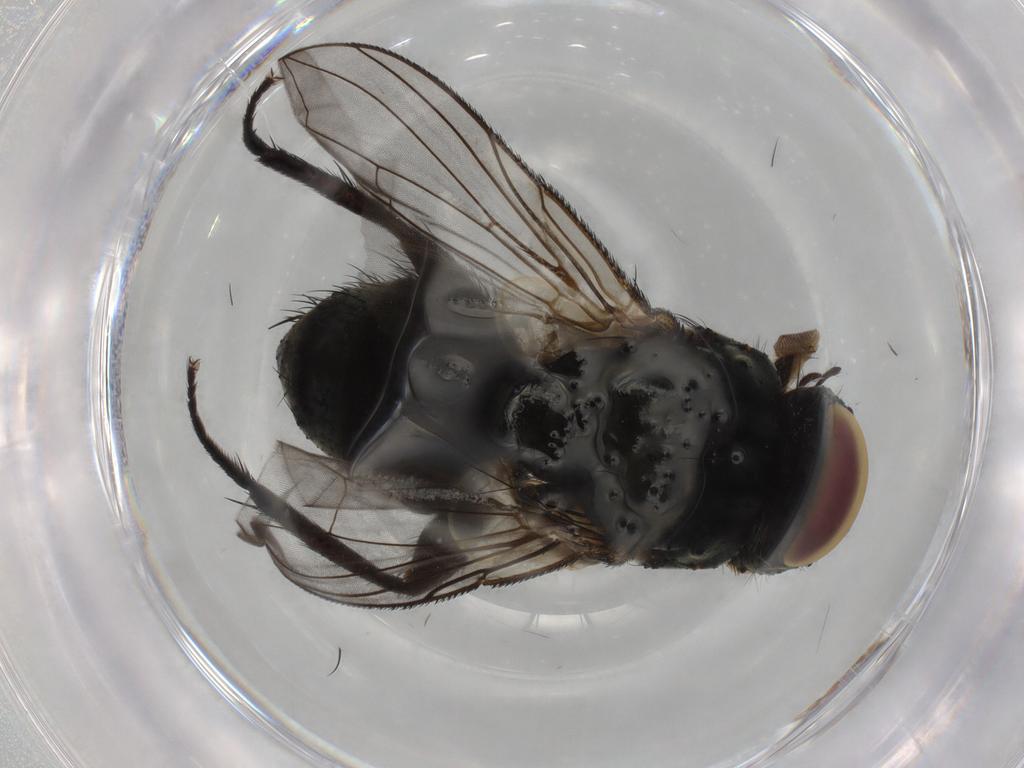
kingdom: Animalia
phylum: Arthropoda
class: Insecta
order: Diptera
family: Tachinidae
